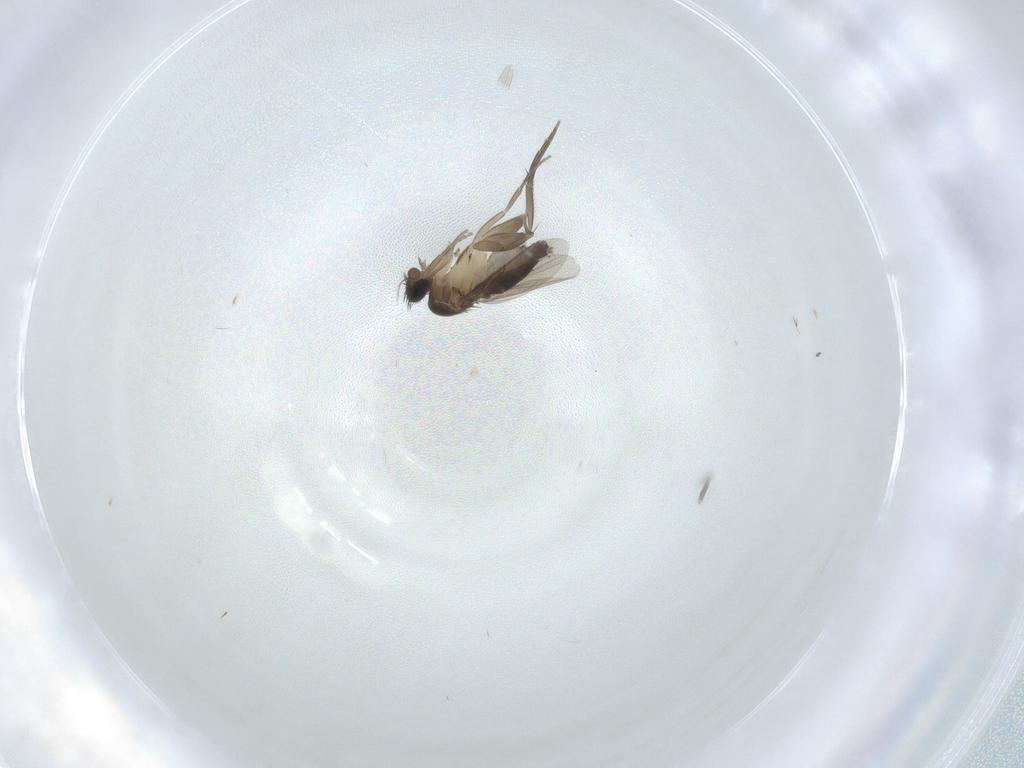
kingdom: Animalia
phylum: Arthropoda
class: Insecta
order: Diptera
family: Phoridae
